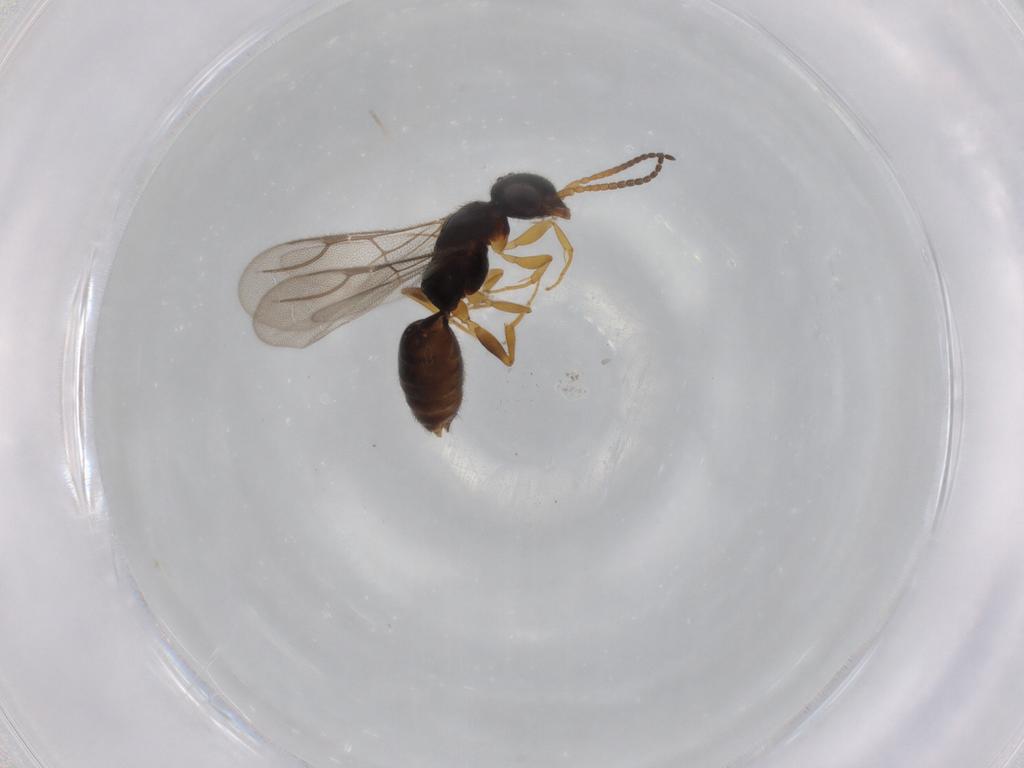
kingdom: Animalia
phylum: Arthropoda
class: Insecta
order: Hymenoptera
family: Platygastridae
